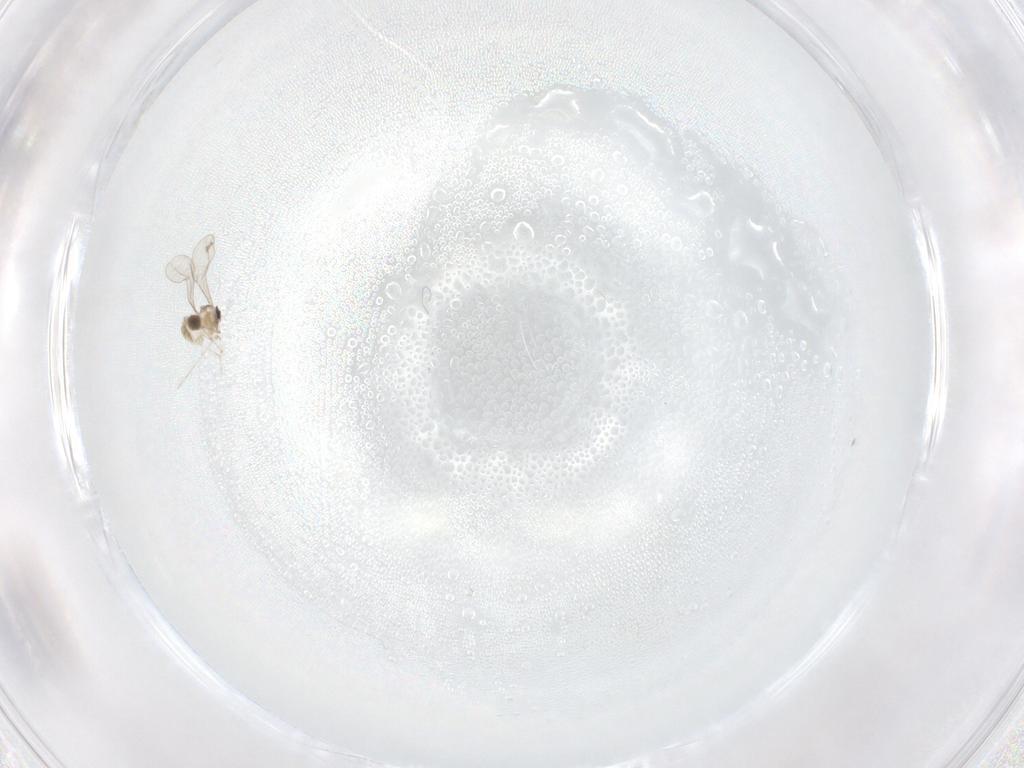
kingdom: Animalia
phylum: Arthropoda
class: Insecta
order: Diptera
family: Cecidomyiidae
